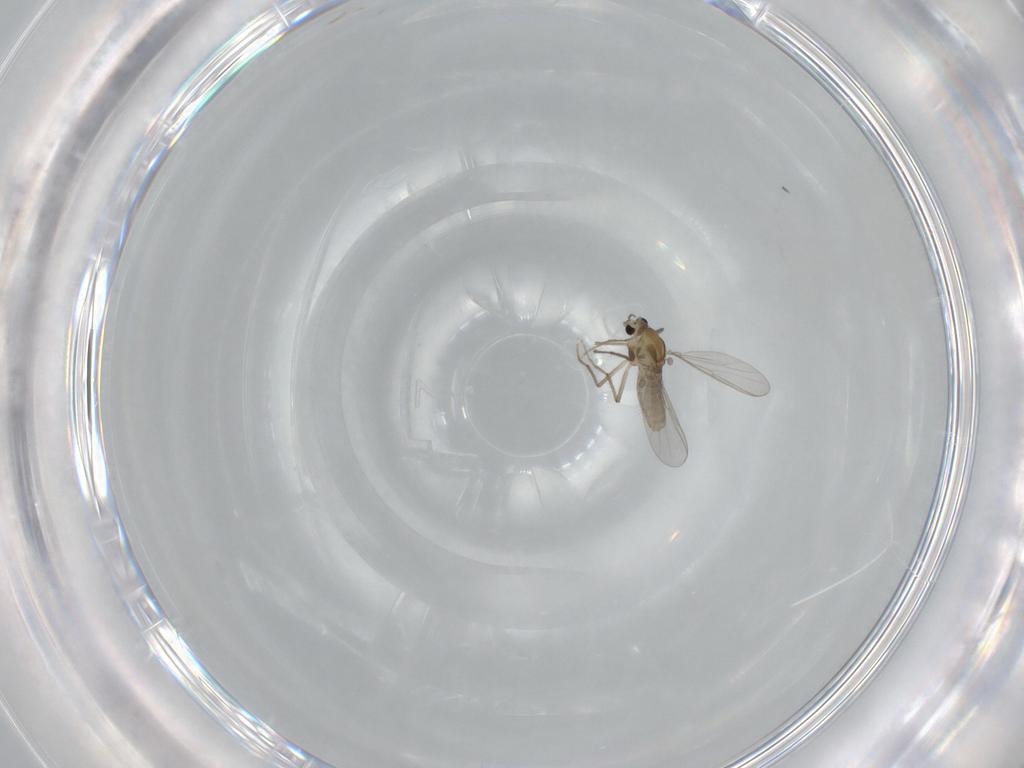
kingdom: Animalia
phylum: Arthropoda
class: Insecta
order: Diptera
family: Chironomidae
